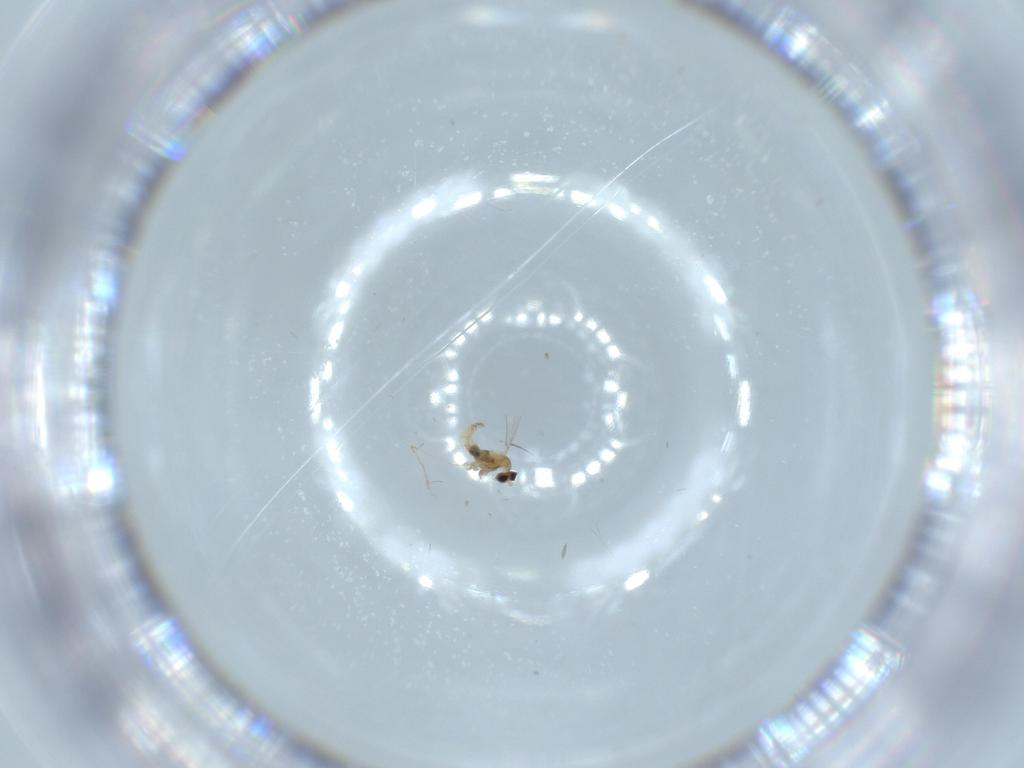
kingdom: Animalia
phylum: Arthropoda
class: Insecta
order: Diptera
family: Cecidomyiidae
